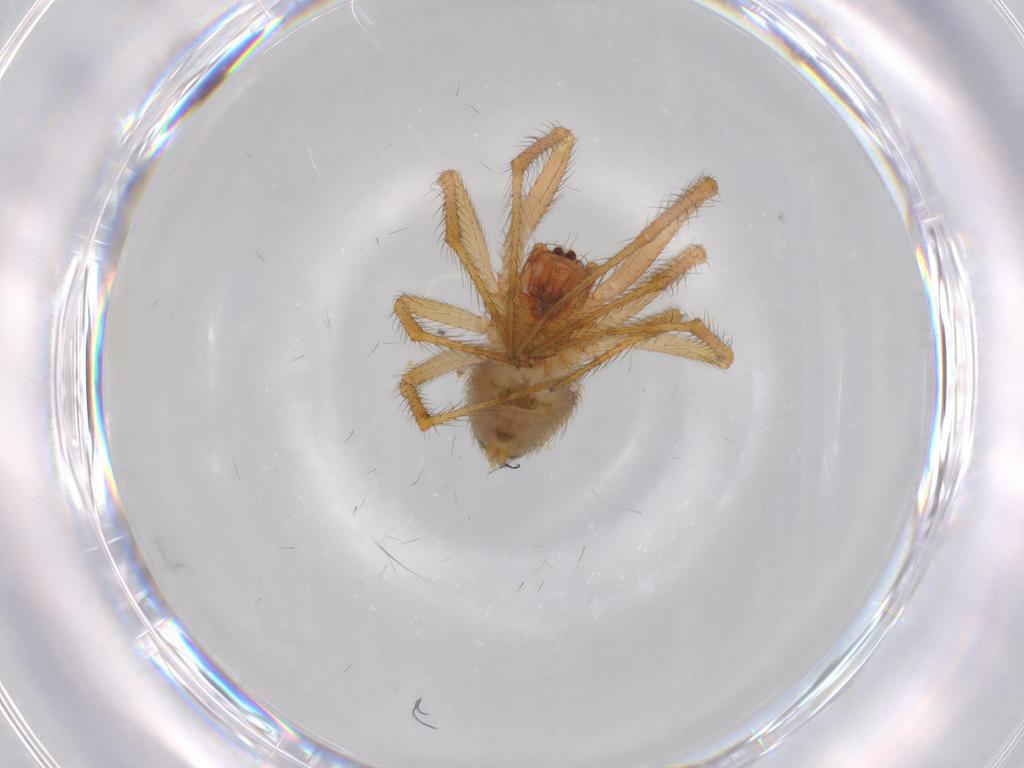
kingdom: Animalia
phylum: Arthropoda
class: Arachnida
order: Araneae
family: Theridiidae
